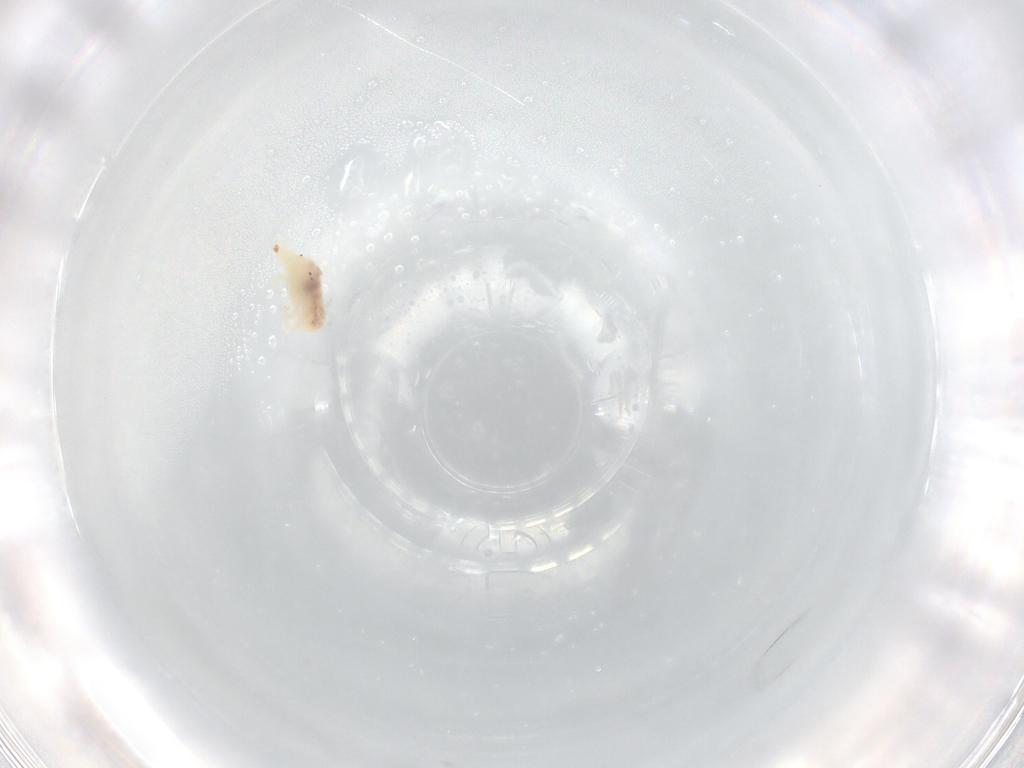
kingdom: Animalia
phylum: Arthropoda
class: Arachnida
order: Trombidiformes
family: Bdellidae
